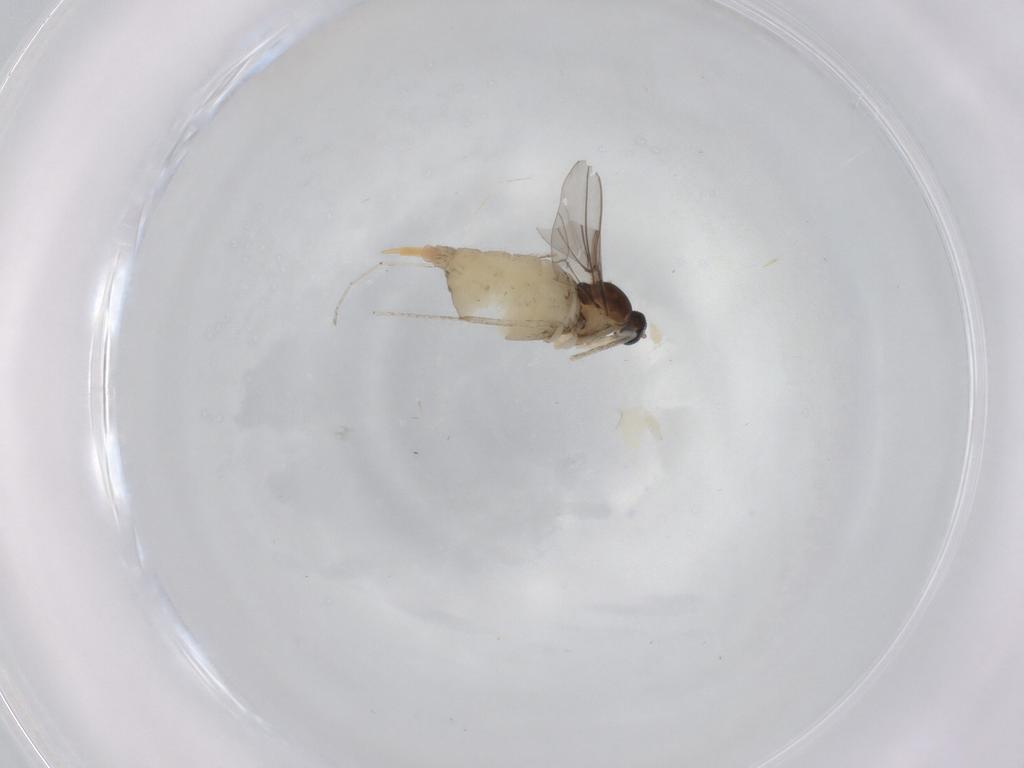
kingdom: Animalia
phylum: Arthropoda
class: Insecta
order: Diptera
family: Cecidomyiidae
